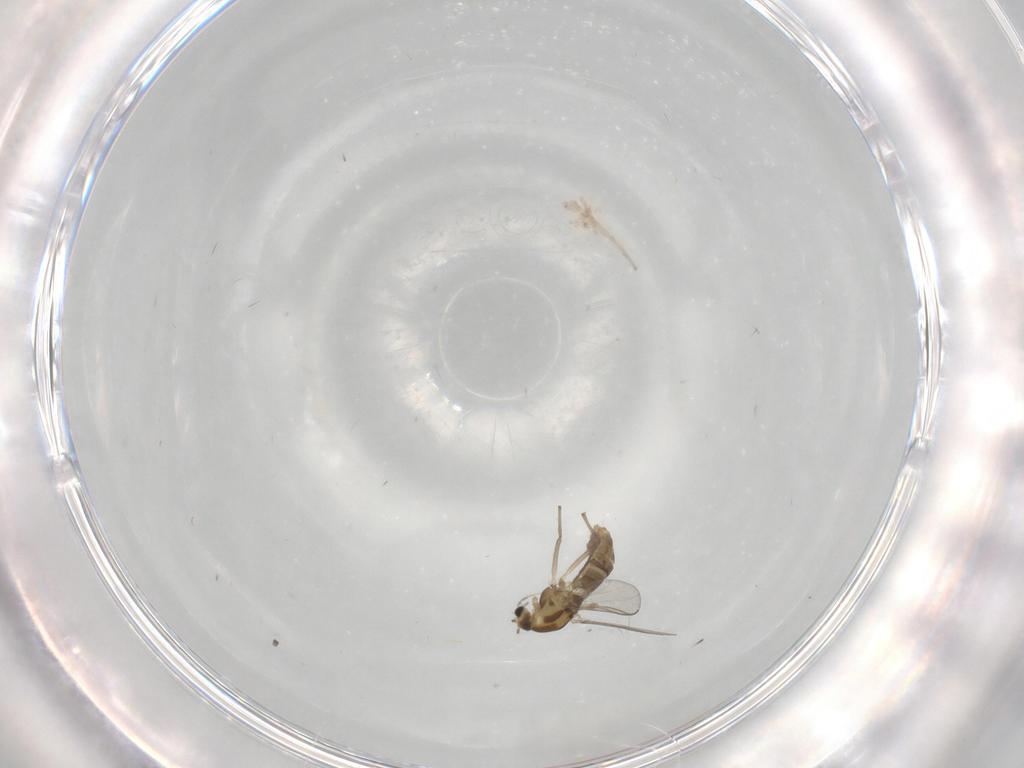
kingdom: Animalia
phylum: Arthropoda
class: Insecta
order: Diptera
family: Chironomidae
